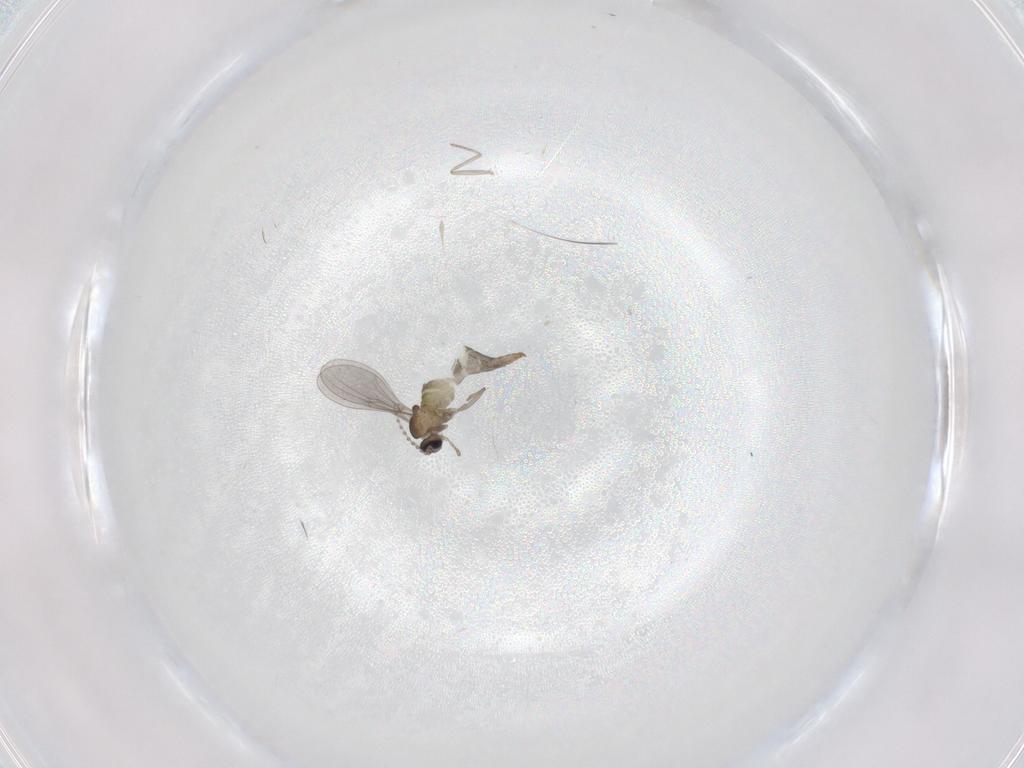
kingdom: Animalia
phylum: Arthropoda
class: Insecta
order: Diptera
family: Cecidomyiidae
